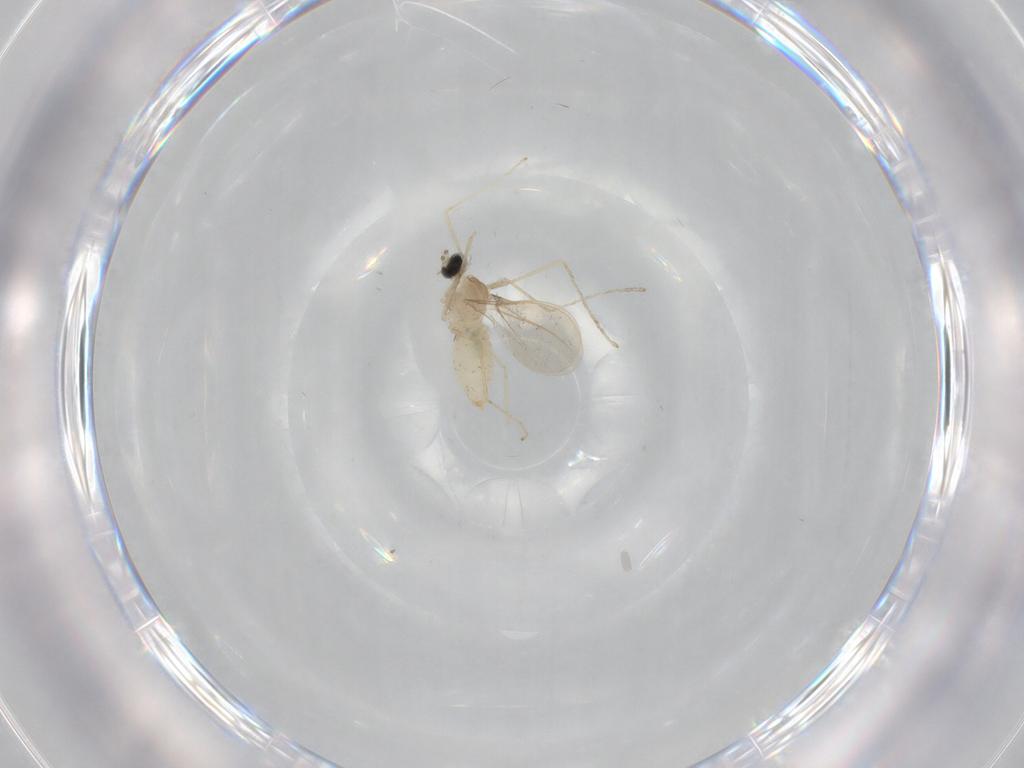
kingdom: Animalia
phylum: Arthropoda
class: Insecta
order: Diptera
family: Cecidomyiidae
